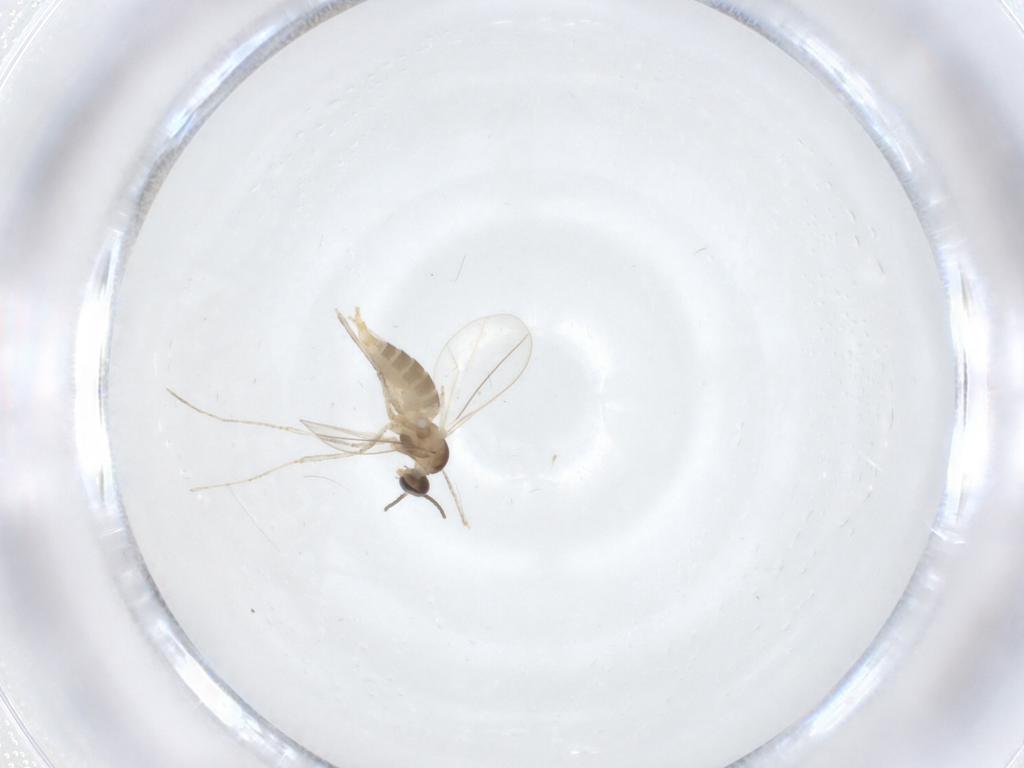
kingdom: Animalia
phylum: Arthropoda
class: Insecta
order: Diptera
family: Cecidomyiidae
